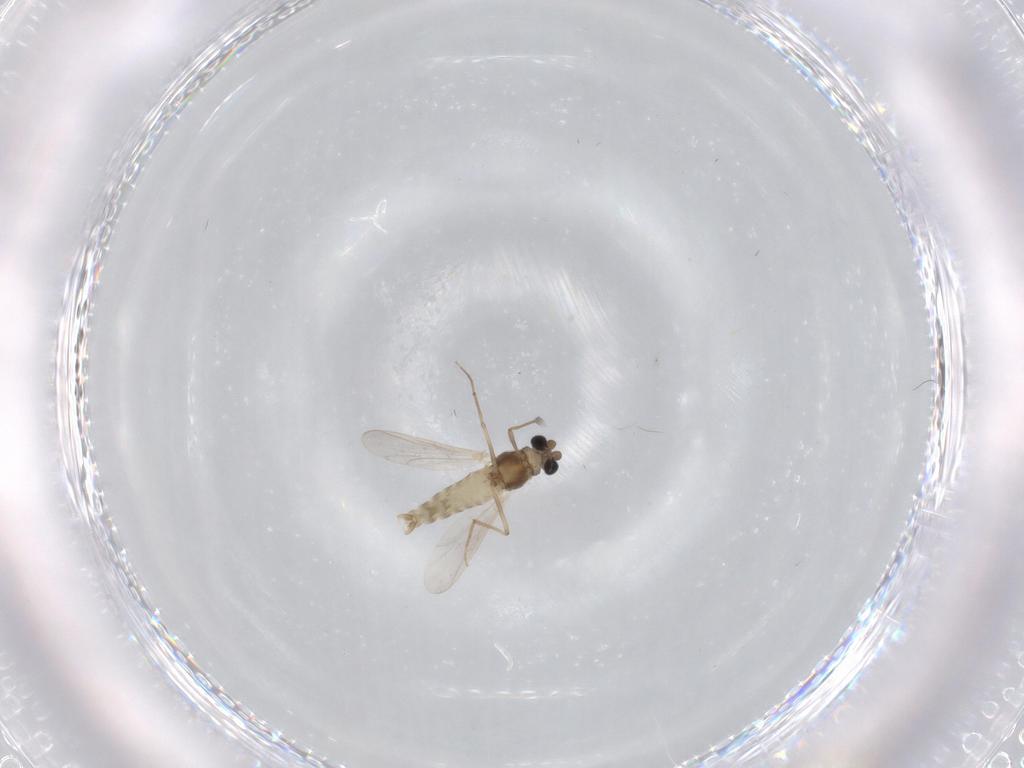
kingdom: Animalia
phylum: Arthropoda
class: Insecta
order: Diptera
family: Chironomidae
